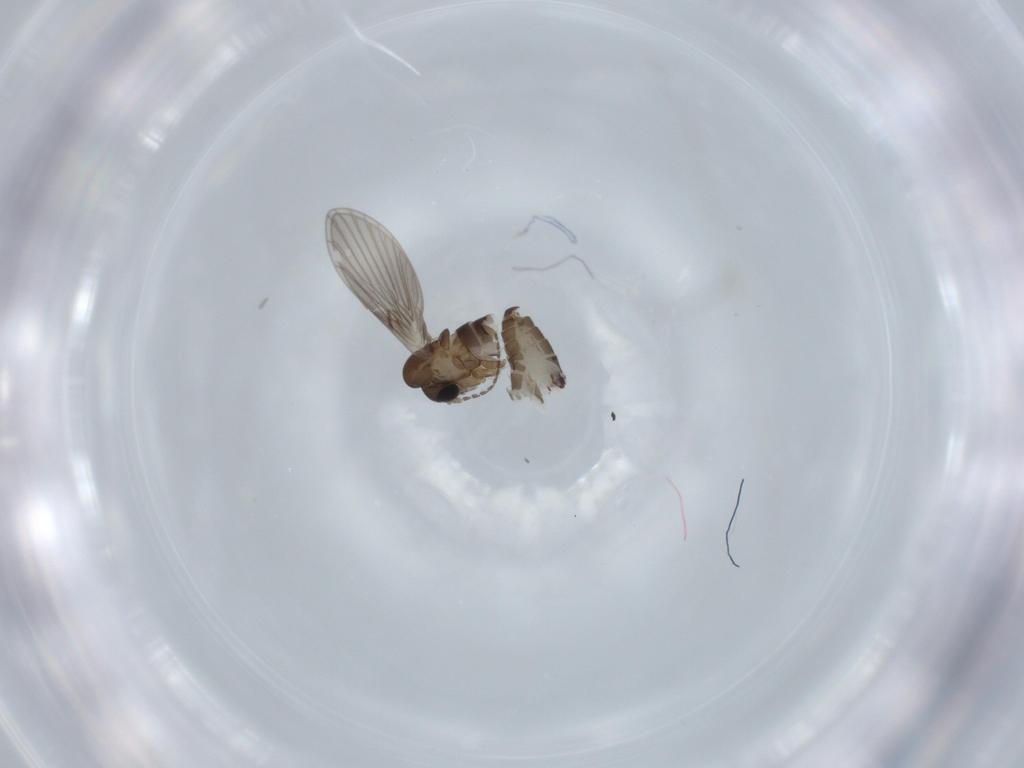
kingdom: Animalia
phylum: Arthropoda
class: Insecta
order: Diptera
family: Psychodidae
